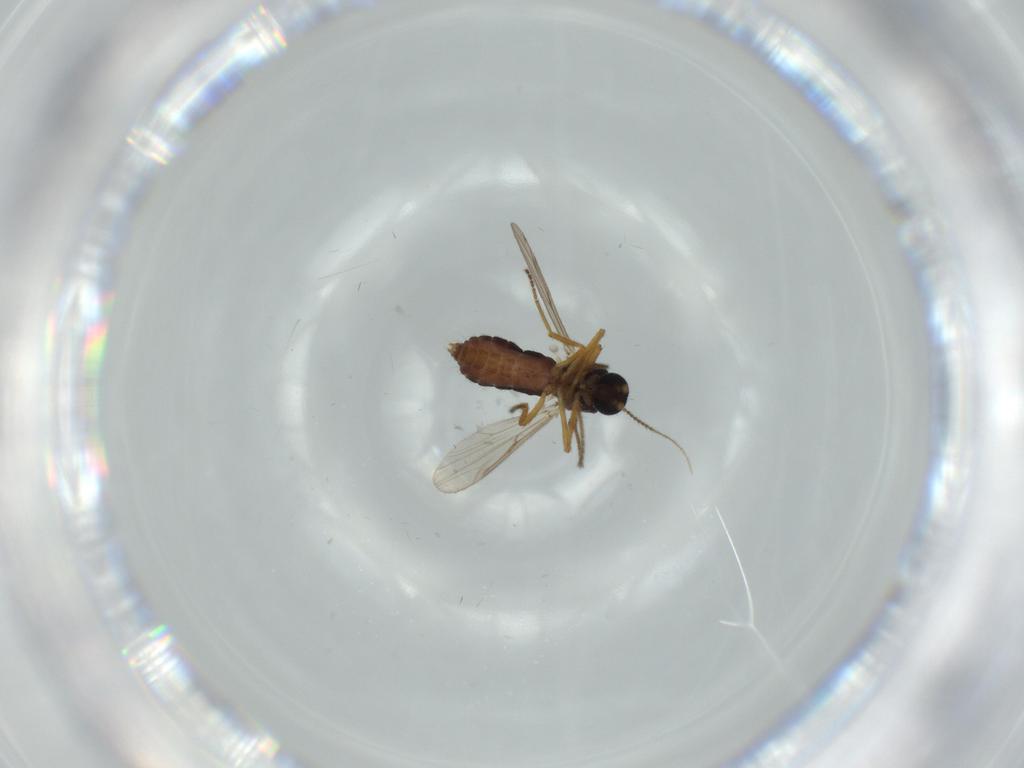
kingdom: Animalia
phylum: Arthropoda
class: Insecta
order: Diptera
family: Ceratopogonidae
